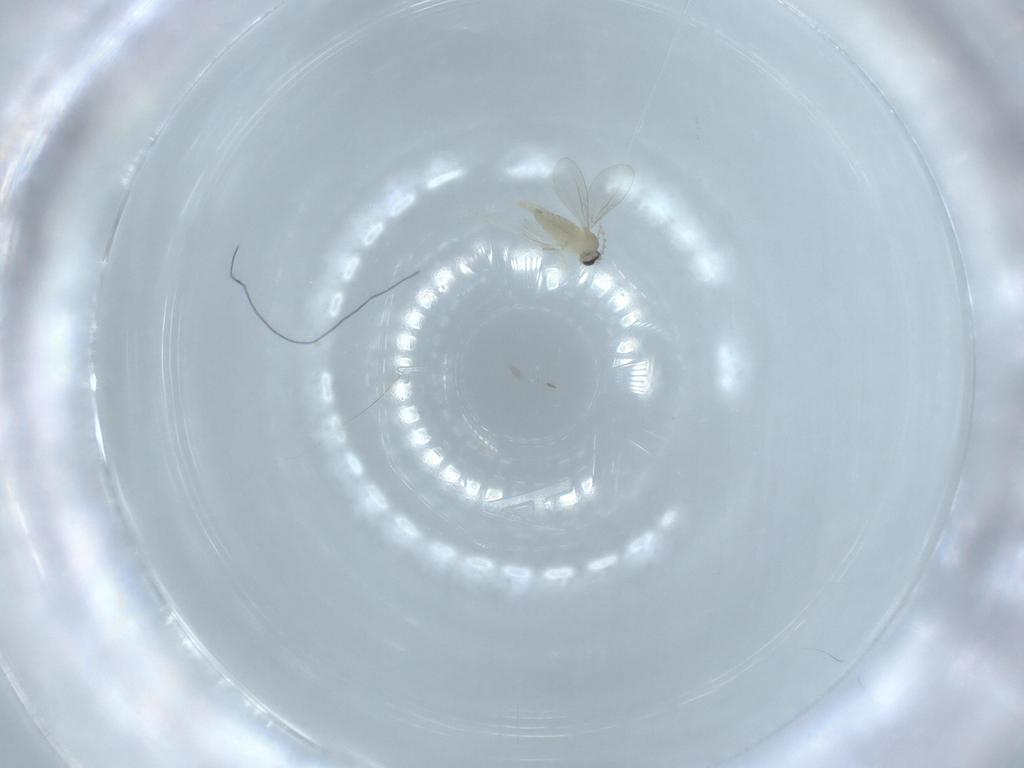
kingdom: Animalia
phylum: Arthropoda
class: Insecta
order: Diptera
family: Cecidomyiidae
